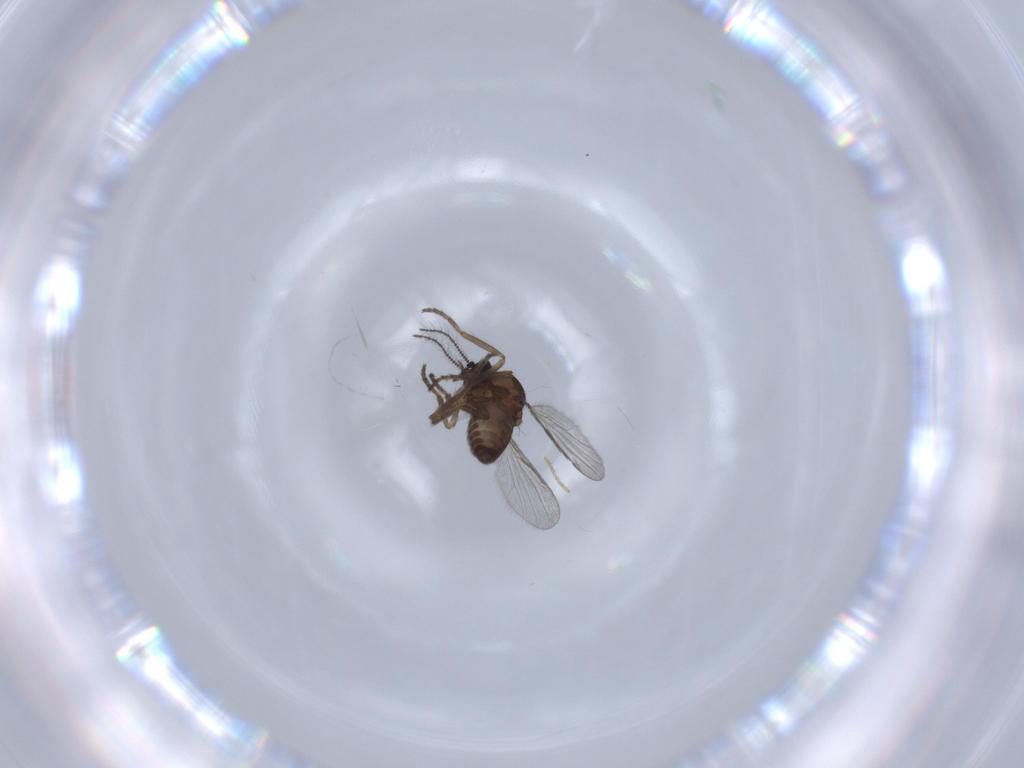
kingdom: Animalia
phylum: Arthropoda
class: Insecta
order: Diptera
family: Chironomidae
